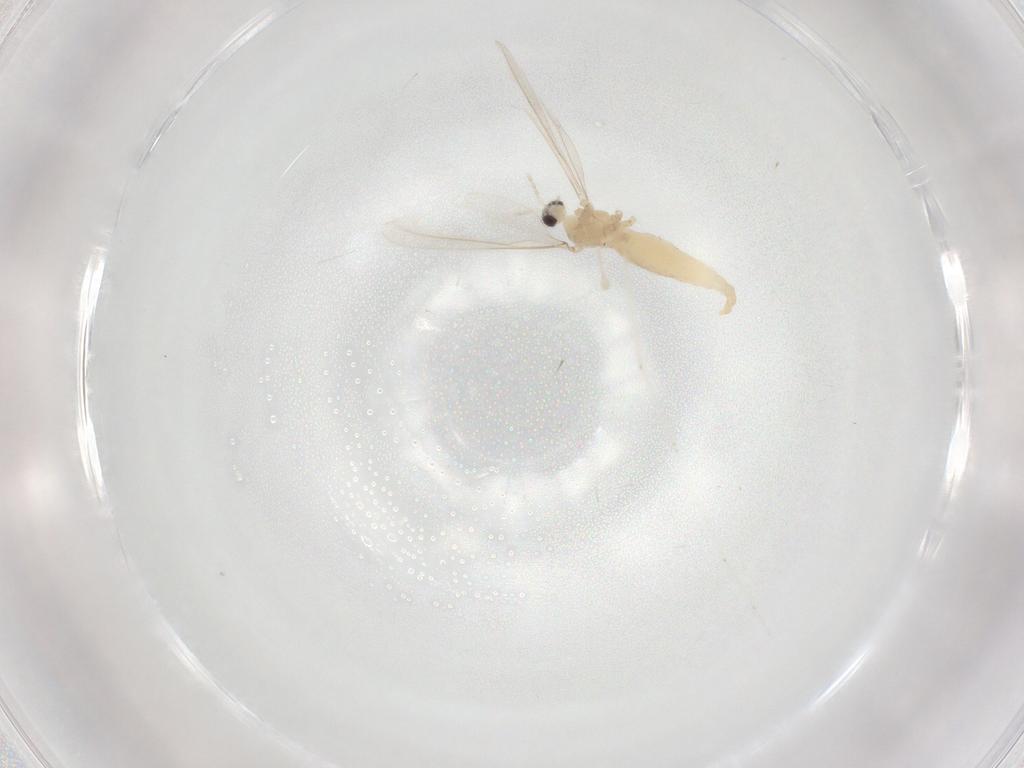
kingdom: Animalia
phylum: Arthropoda
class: Insecta
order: Diptera
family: Cecidomyiidae
